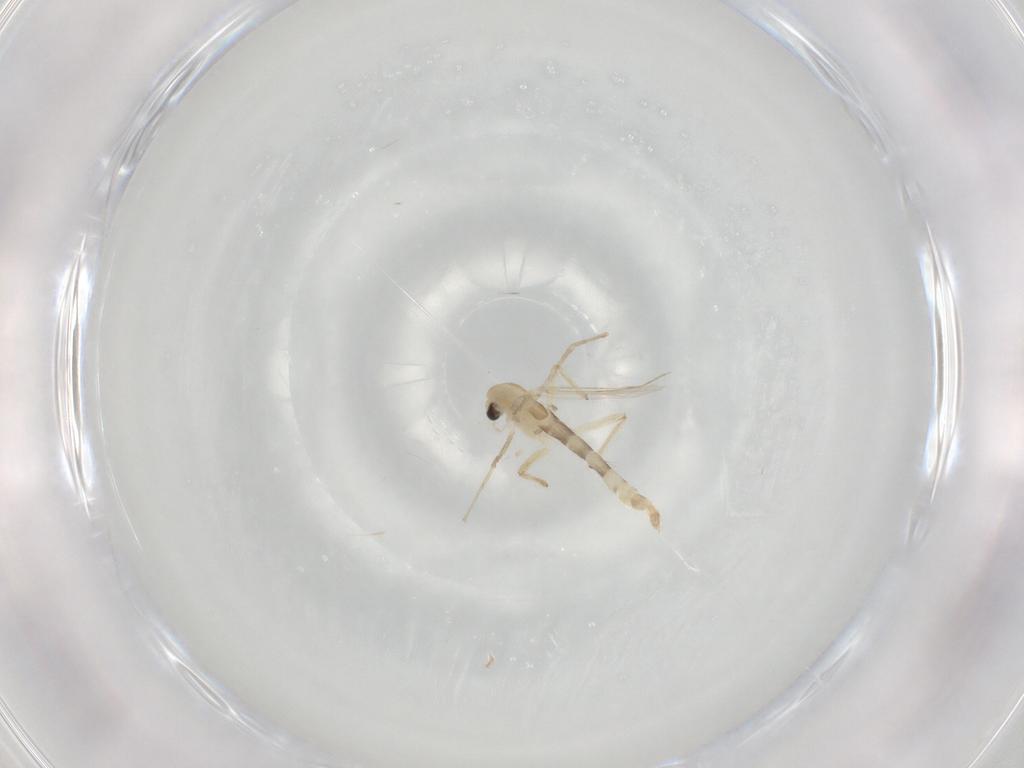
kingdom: Animalia
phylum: Arthropoda
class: Insecta
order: Diptera
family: Chironomidae
